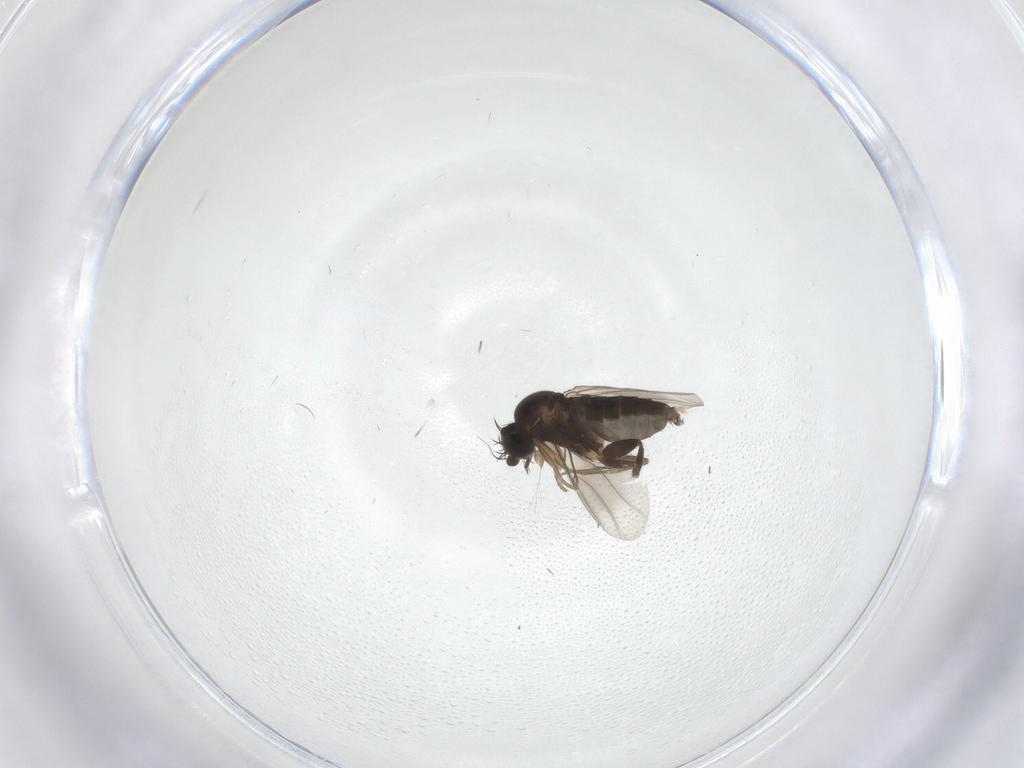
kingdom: Animalia
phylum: Arthropoda
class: Insecta
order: Diptera
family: Phoridae
